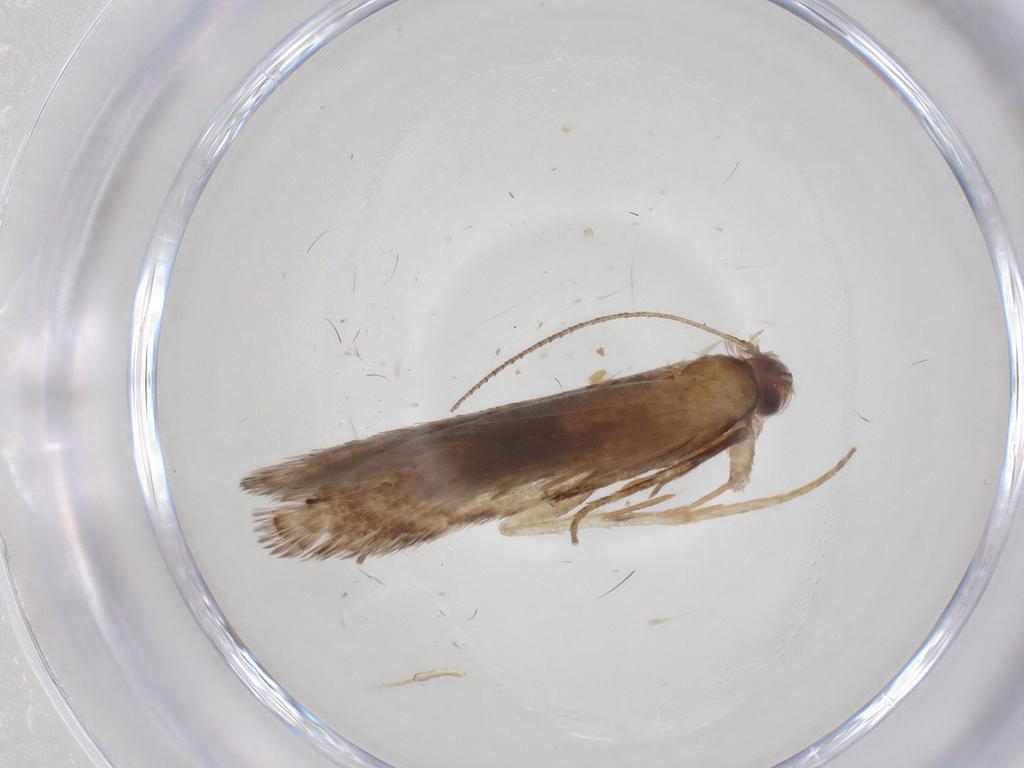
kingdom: Animalia
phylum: Arthropoda
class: Insecta
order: Lepidoptera
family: Gelechiidae
